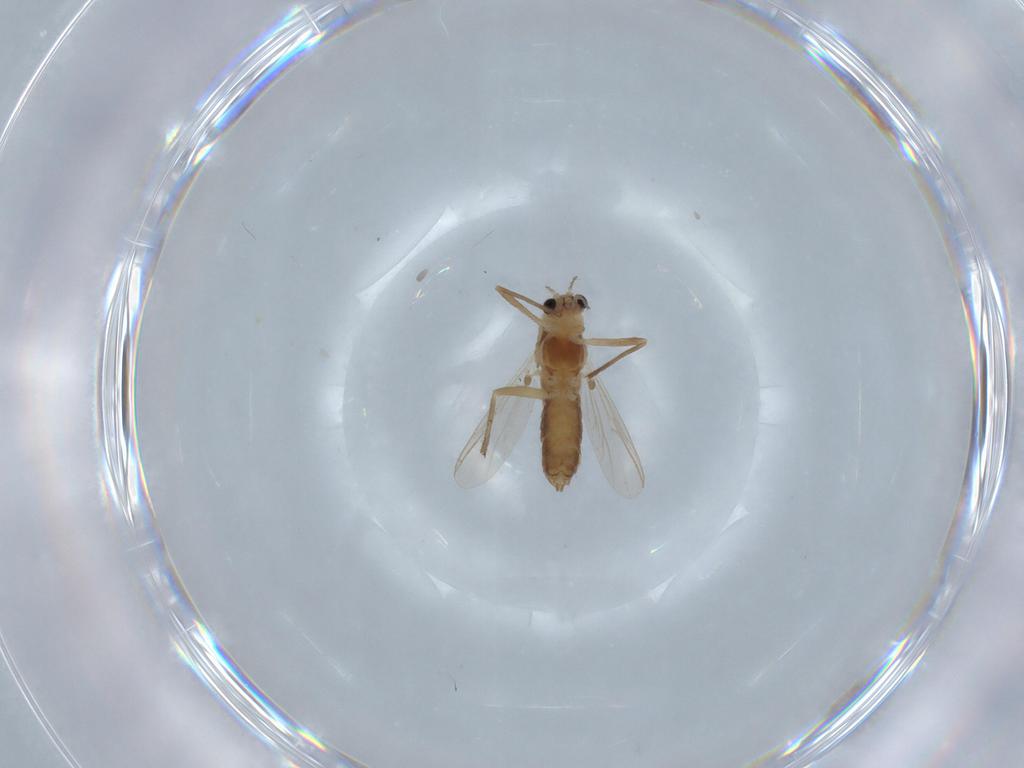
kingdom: Animalia
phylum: Arthropoda
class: Insecta
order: Diptera
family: Chironomidae
